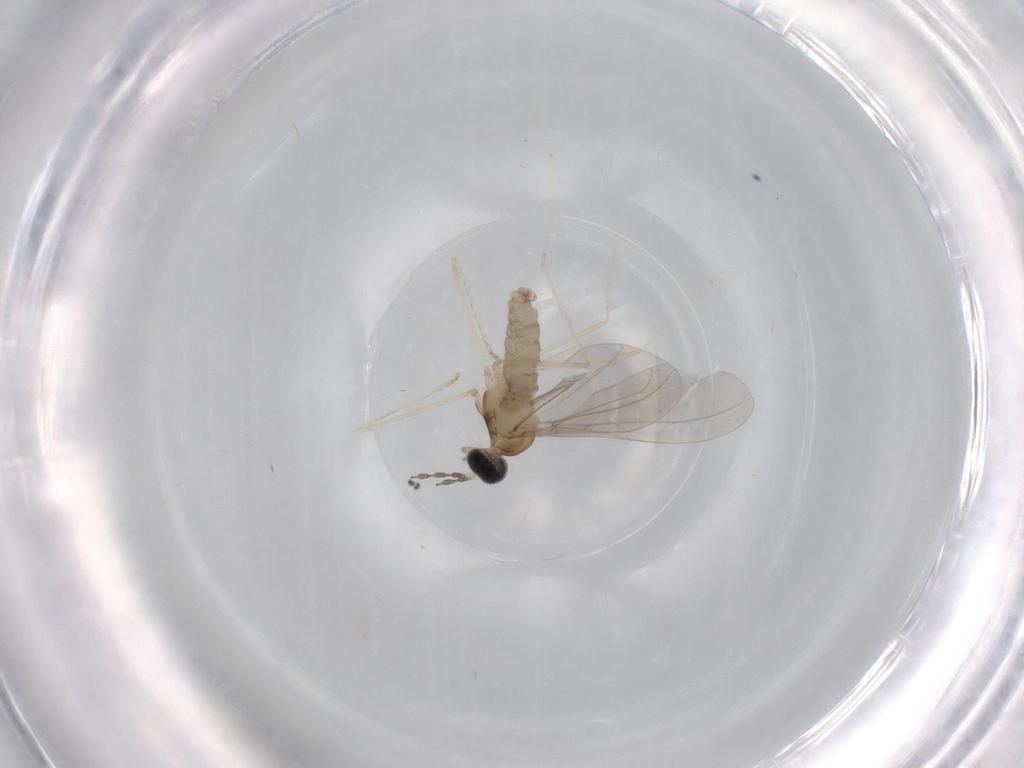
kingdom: Animalia
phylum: Arthropoda
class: Insecta
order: Diptera
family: Cecidomyiidae
